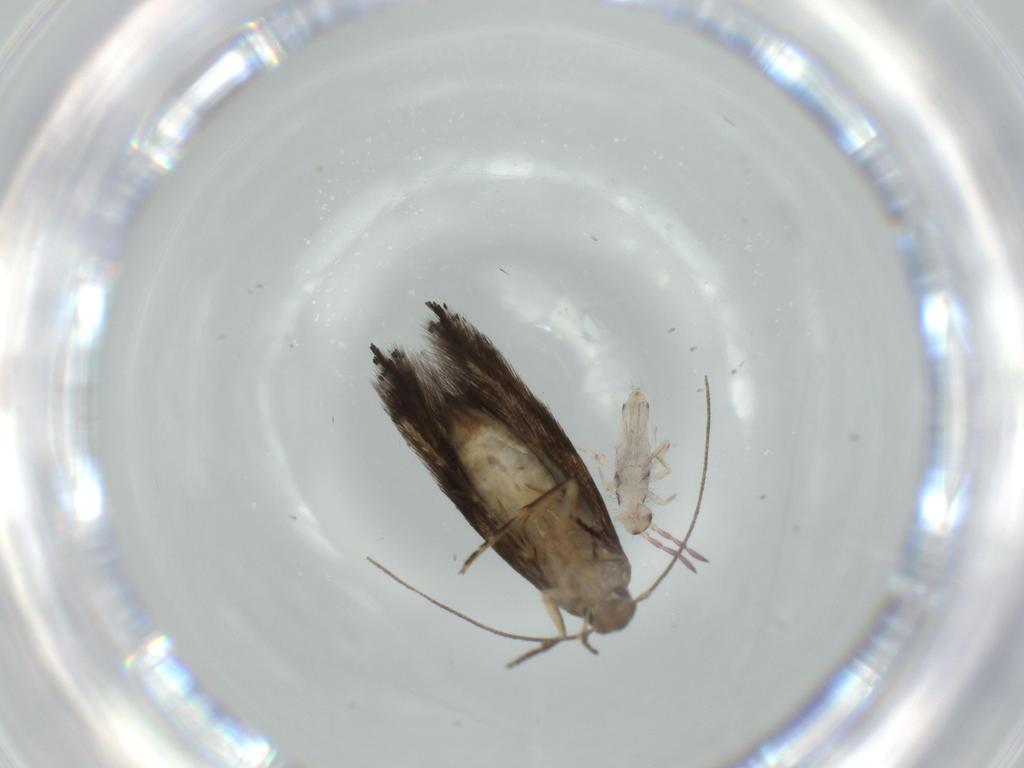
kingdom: Animalia
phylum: Arthropoda
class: Collembola
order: Entomobryomorpha
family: Entomobryidae
